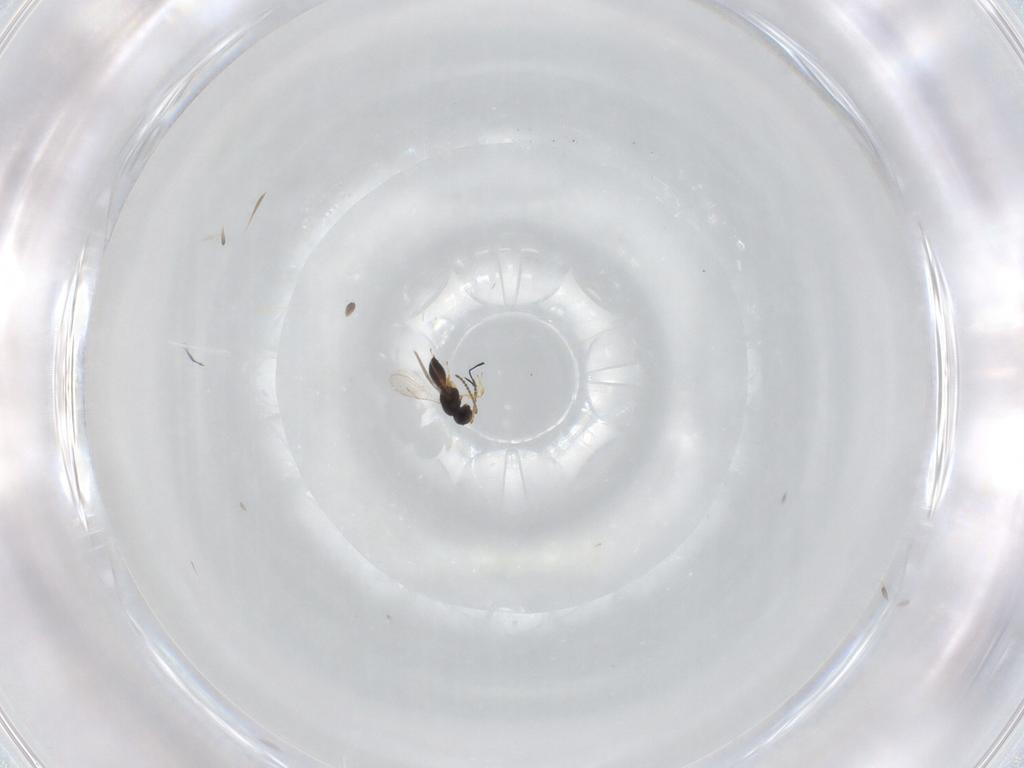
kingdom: Animalia
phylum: Arthropoda
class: Insecta
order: Hymenoptera
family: Scelionidae
